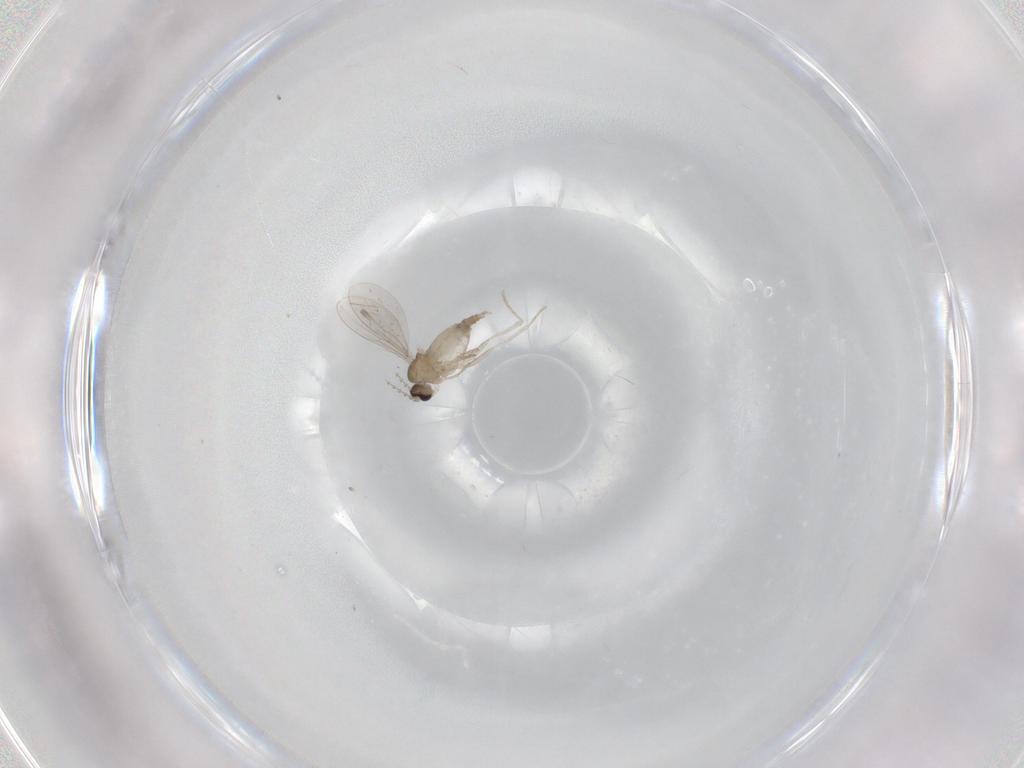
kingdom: Animalia
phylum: Arthropoda
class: Insecta
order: Diptera
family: Cecidomyiidae
